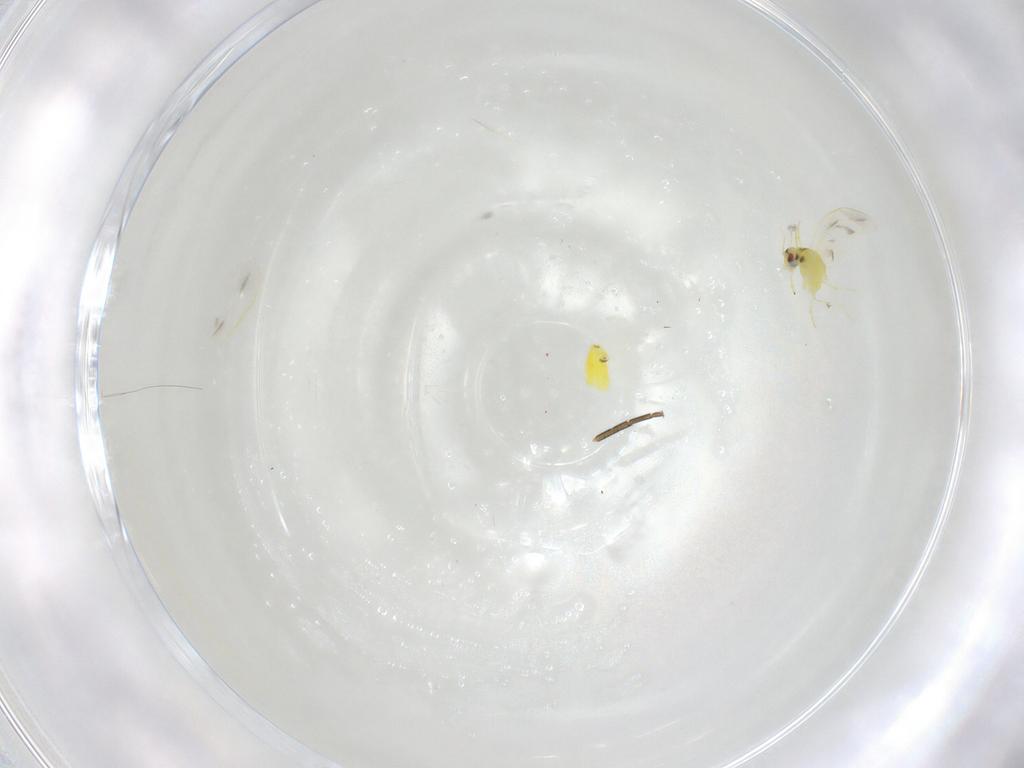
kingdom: Animalia
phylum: Arthropoda
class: Insecta
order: Hemiptera
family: Aleyrodidae
